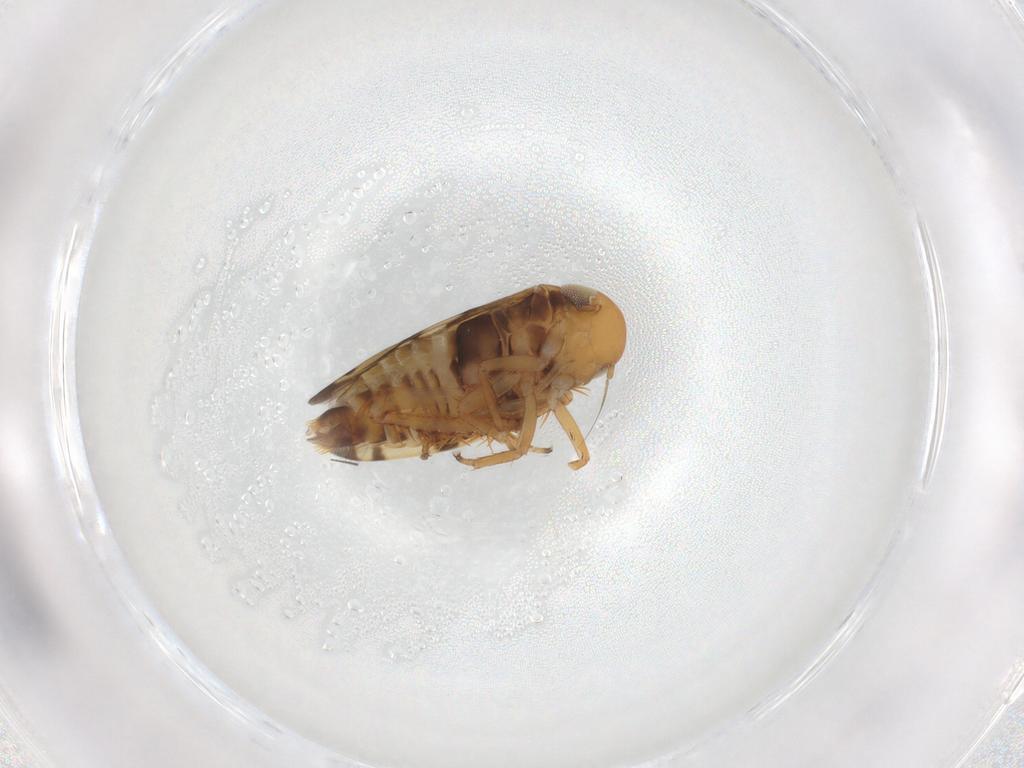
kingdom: Animalia
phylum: Arthropoda
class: Insecta
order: Hemiptera
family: Cicadellidae
